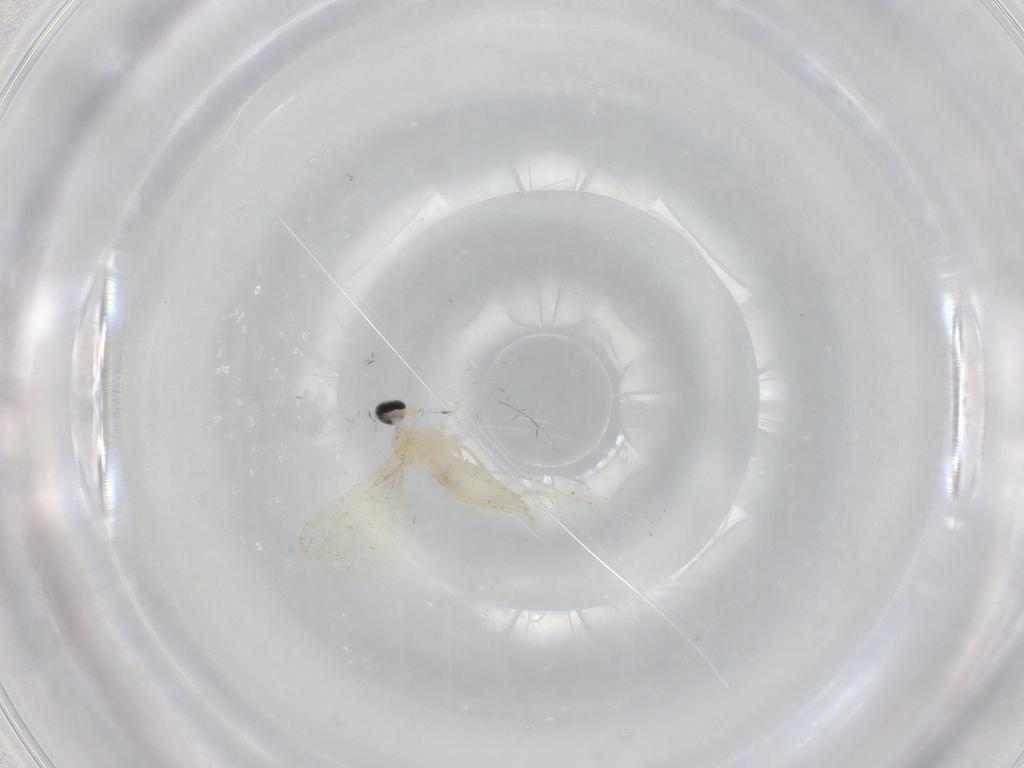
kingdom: Animalia
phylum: Arthropoda
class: Insecta
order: Diptera
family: Cecidomyiidae
